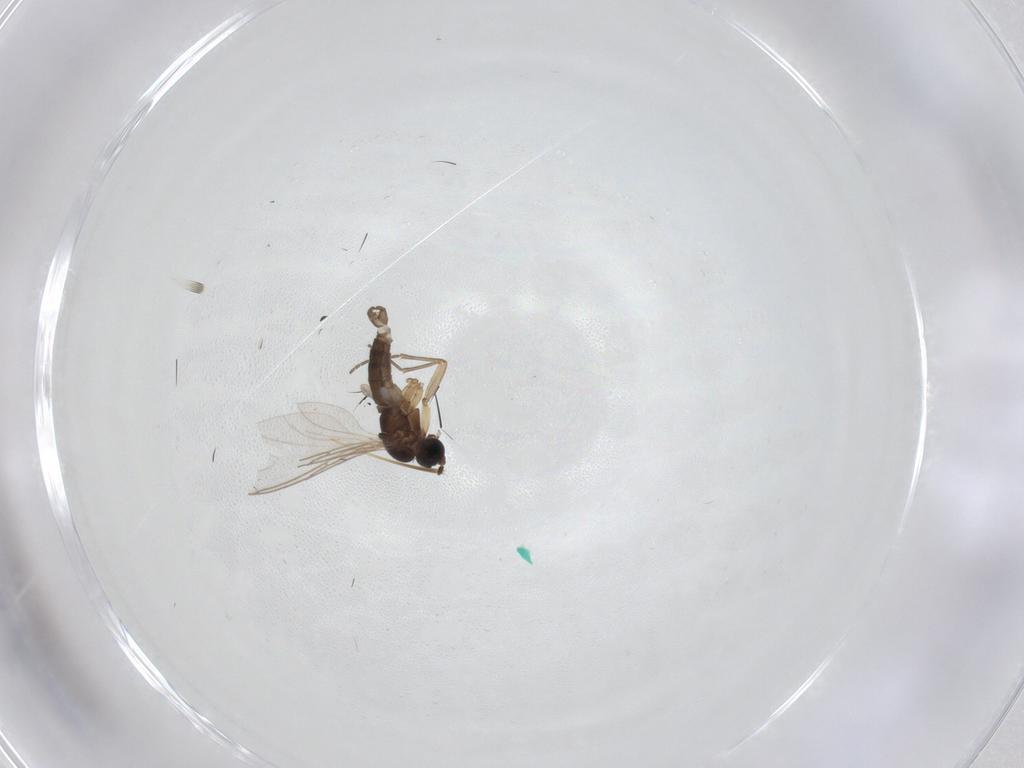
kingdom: Animalia
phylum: Arthropoda
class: Insecta
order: Diptera
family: Sciaridae
